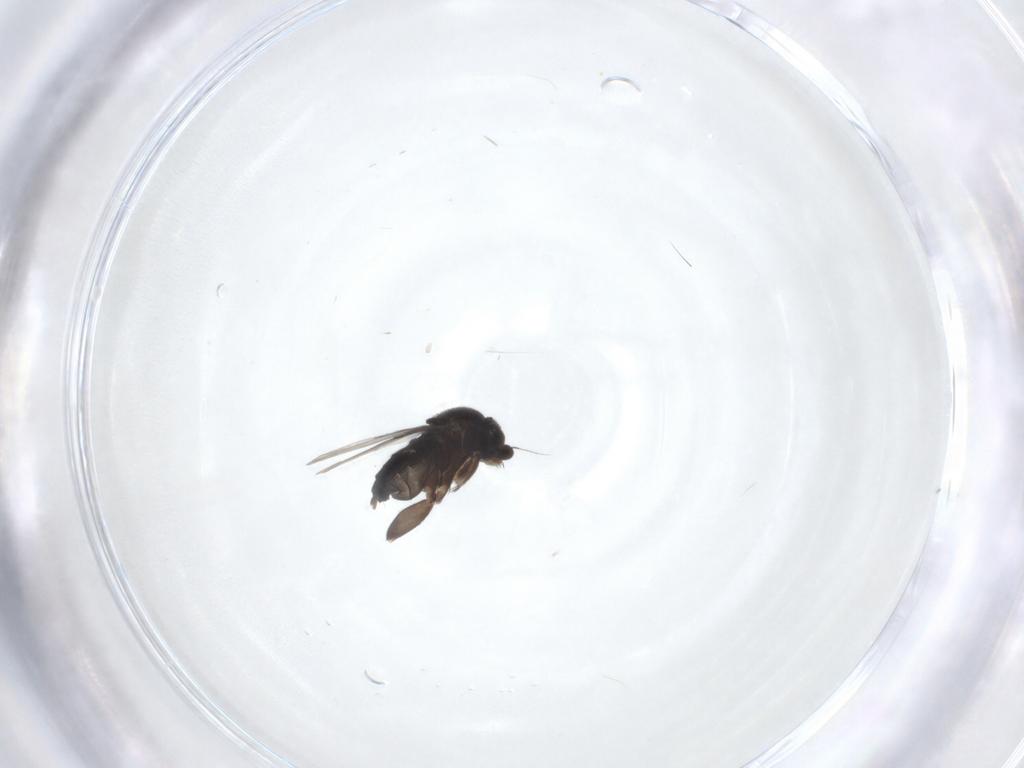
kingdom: Animalia
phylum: Arthropoda
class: Insecta
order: Diptera
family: Phoridae
